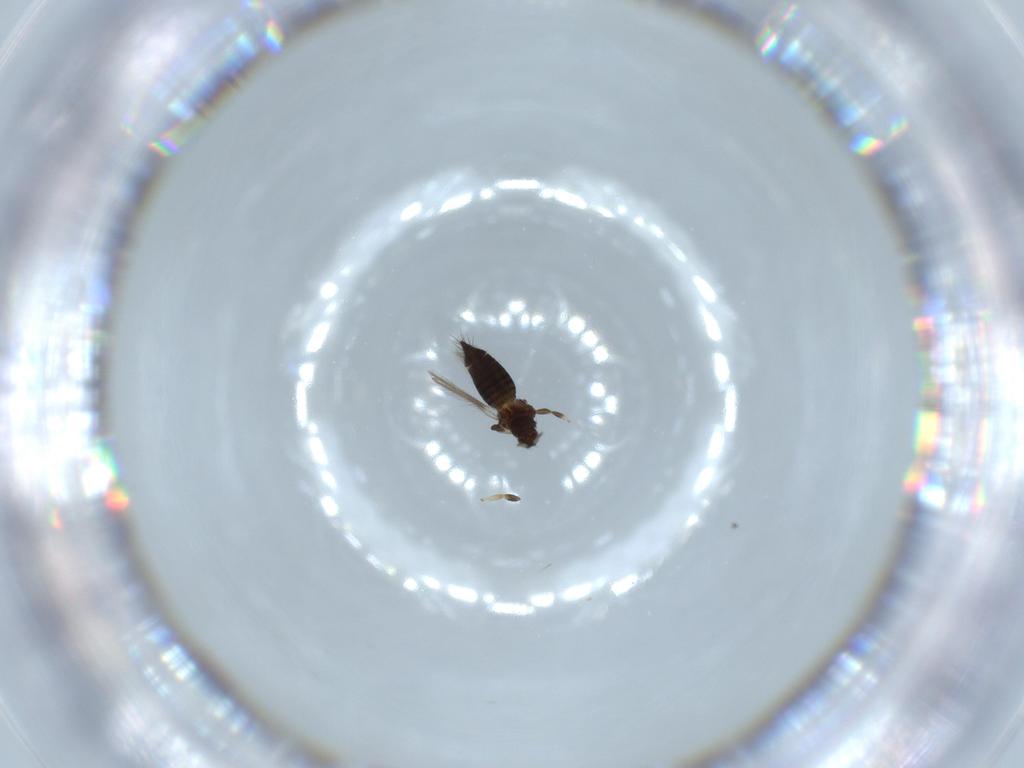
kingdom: Animalia
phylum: Arthropoda
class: Insecta
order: Thysanoptera
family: Thripidae
